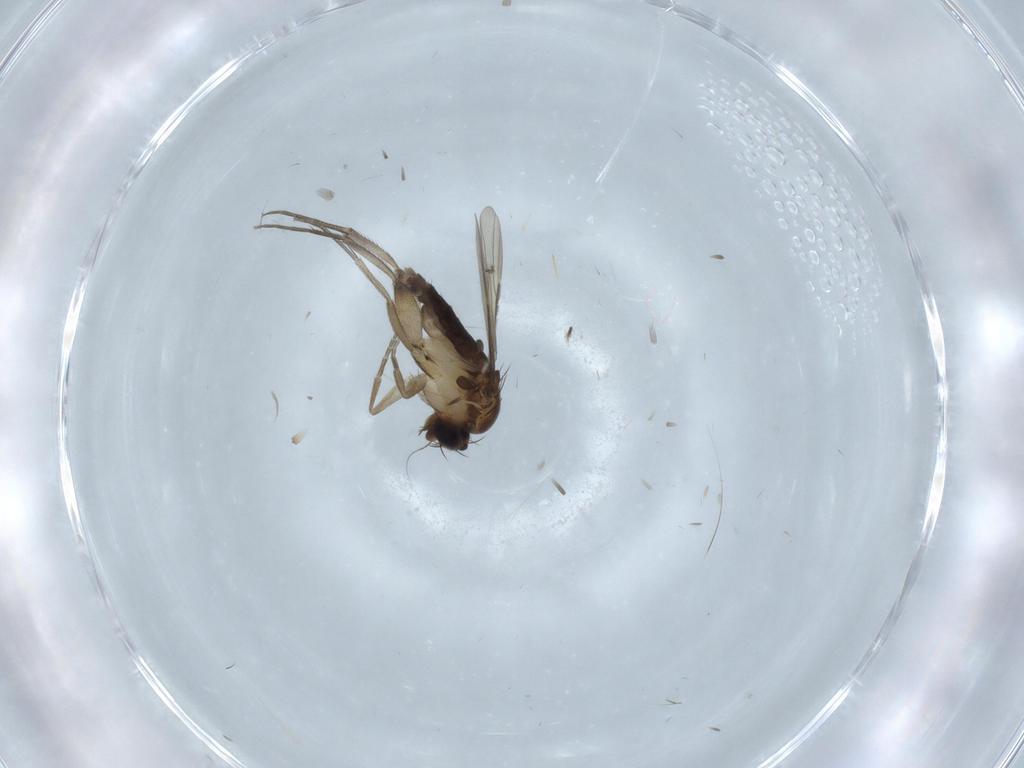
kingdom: Animalia
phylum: Arthropoda
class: Insecta
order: Diptera
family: Phoridae
